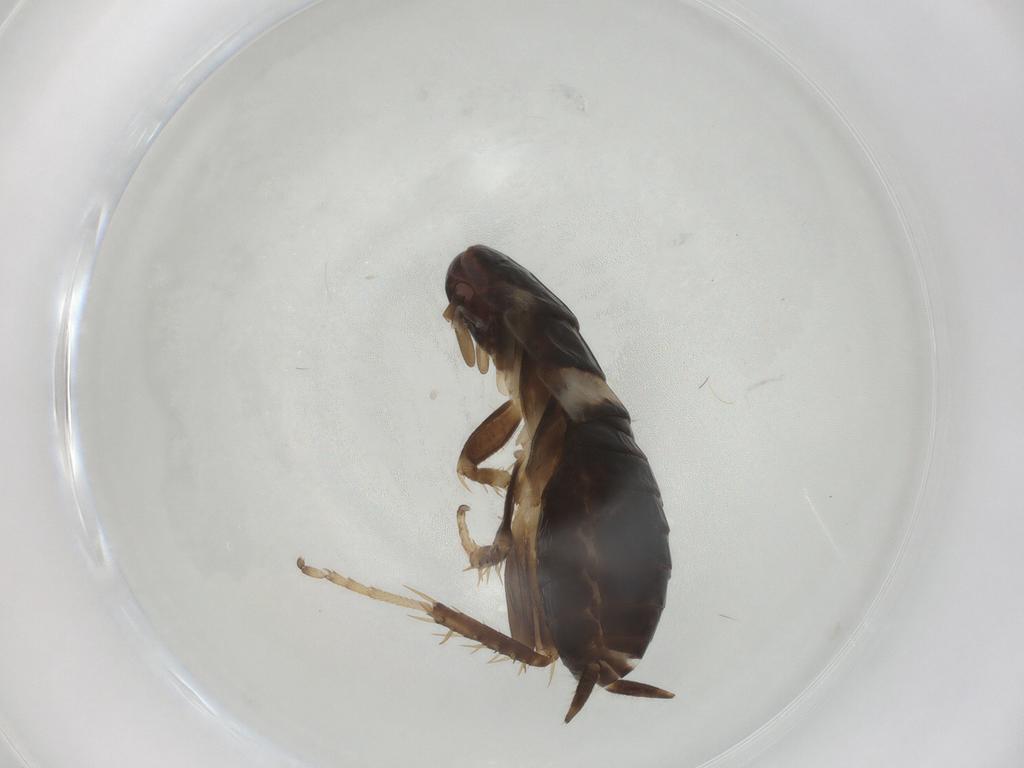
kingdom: Animalia
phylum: Arthropoda
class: Insecta
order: Blattodea
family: Ectobiidae
